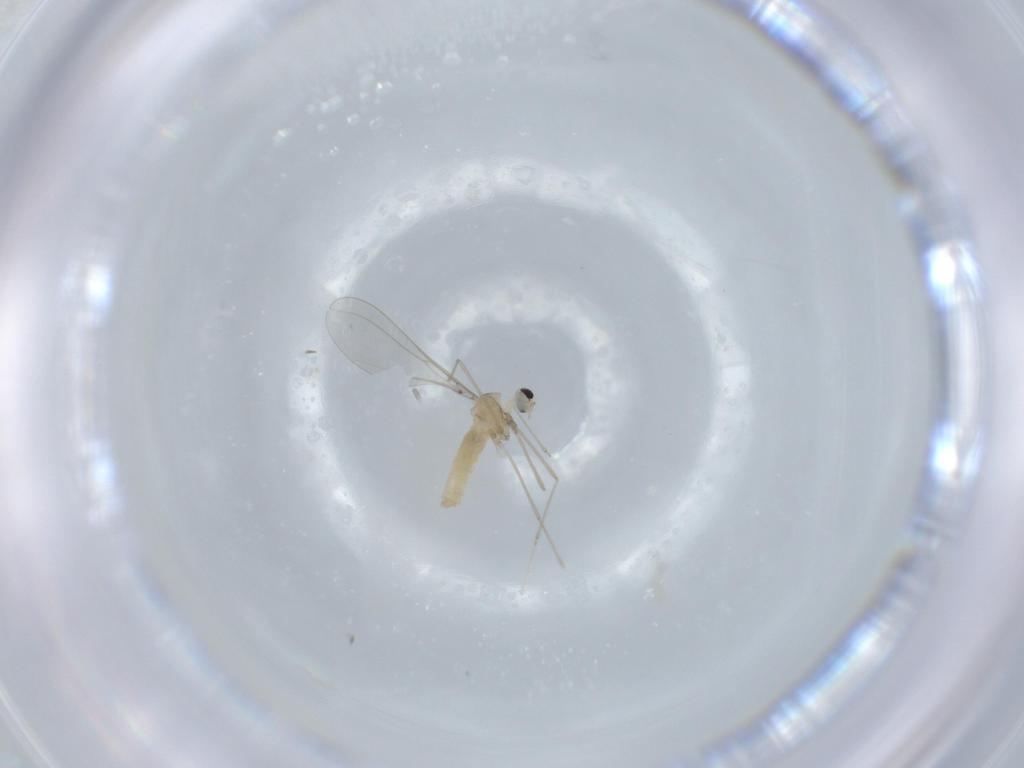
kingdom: Animalia
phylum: Arthropoda
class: Insecta
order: Diptera
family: Cecidomyiidae
